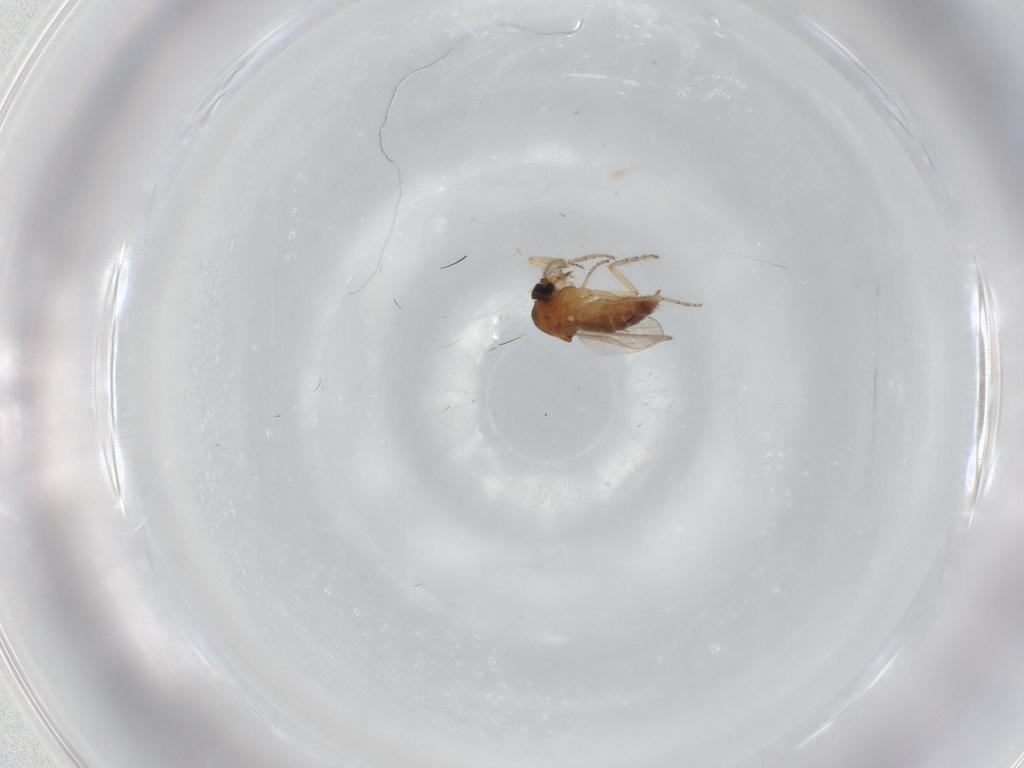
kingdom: Animalia
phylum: Arthropoda
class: Insecta
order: Diptera
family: Ceratopogonidae
